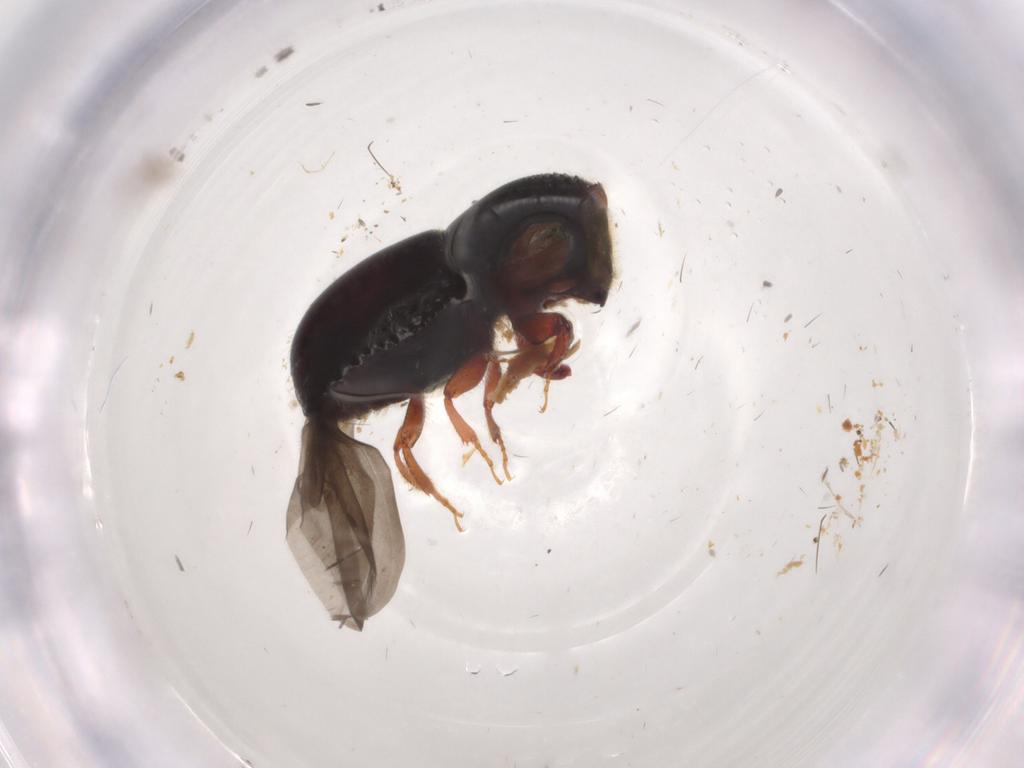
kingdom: Animalia
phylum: Arthropoda
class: Insecta
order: Coleoptera
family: Curculionidae
